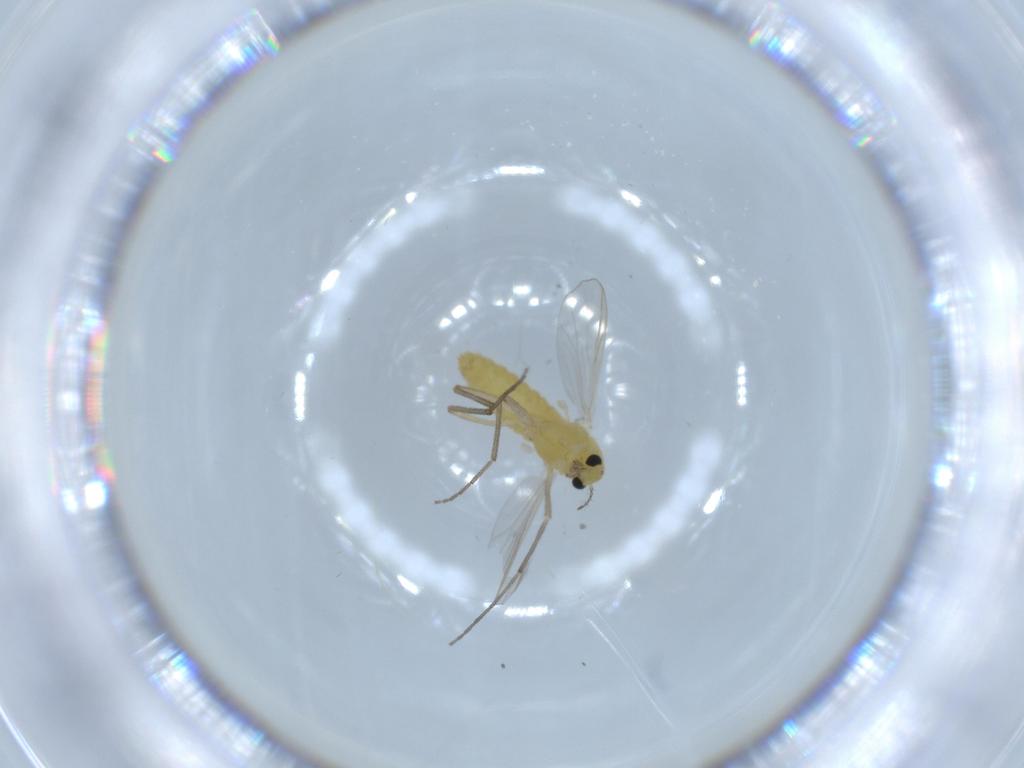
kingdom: Animalia
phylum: Arthropoda
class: Insecta
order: Diptera
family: Chironomidae
